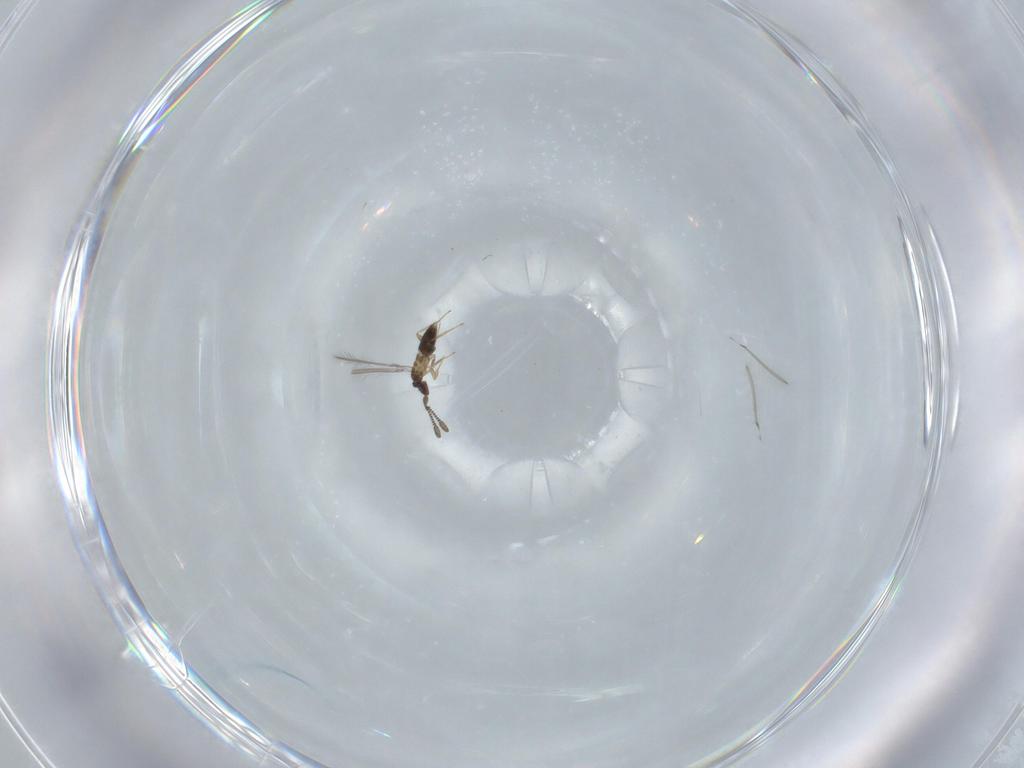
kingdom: Animalia
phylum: Arthropoda
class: Insecta
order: Hymenoptera
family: Mymaridae
